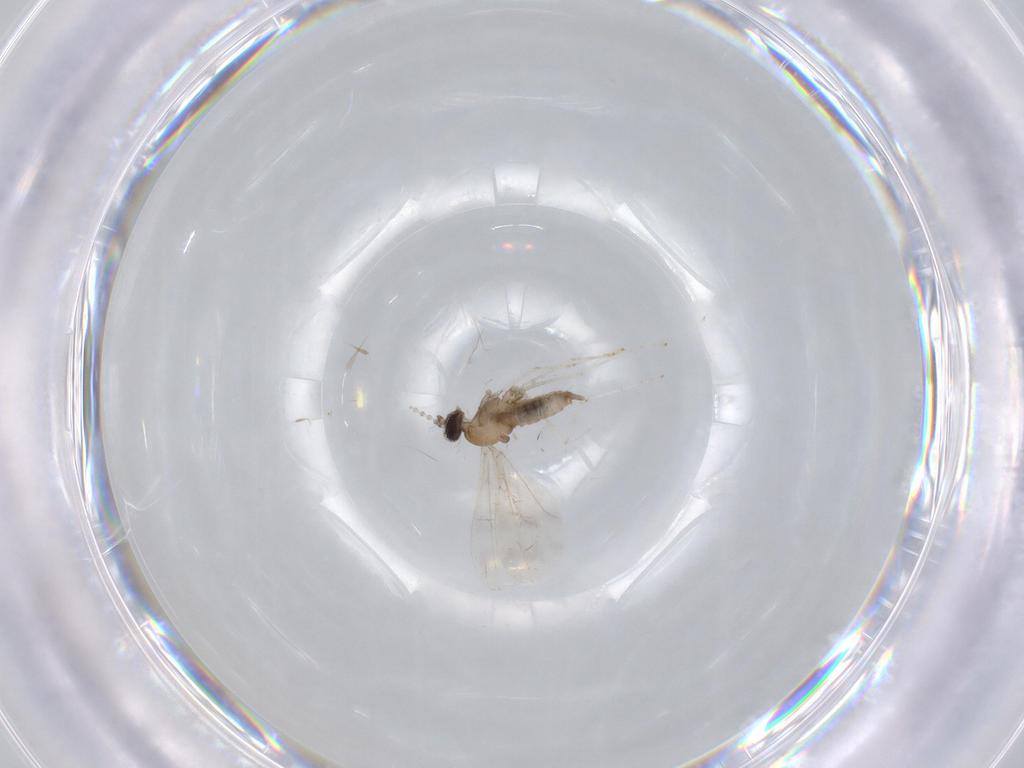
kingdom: Animalia
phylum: Arthropoda
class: Insecta
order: Diptera
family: Cecidomyiidae
